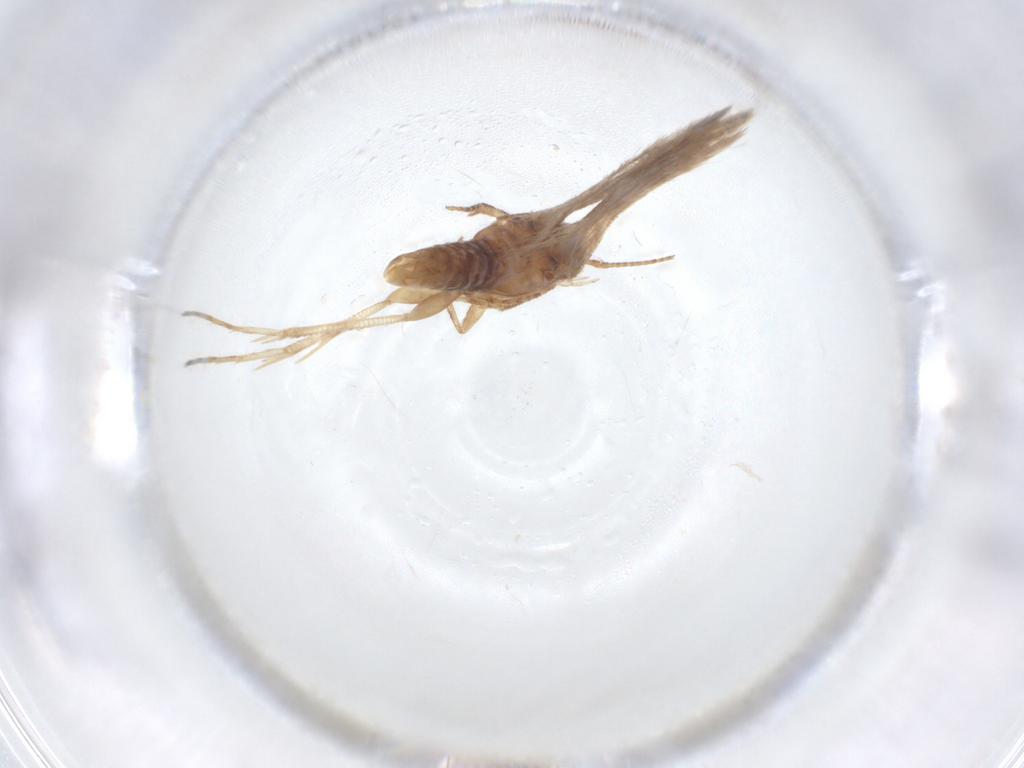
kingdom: Animalia
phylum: Arthropoda
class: Insecta
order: Lepidoptera
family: Gelechiidae
